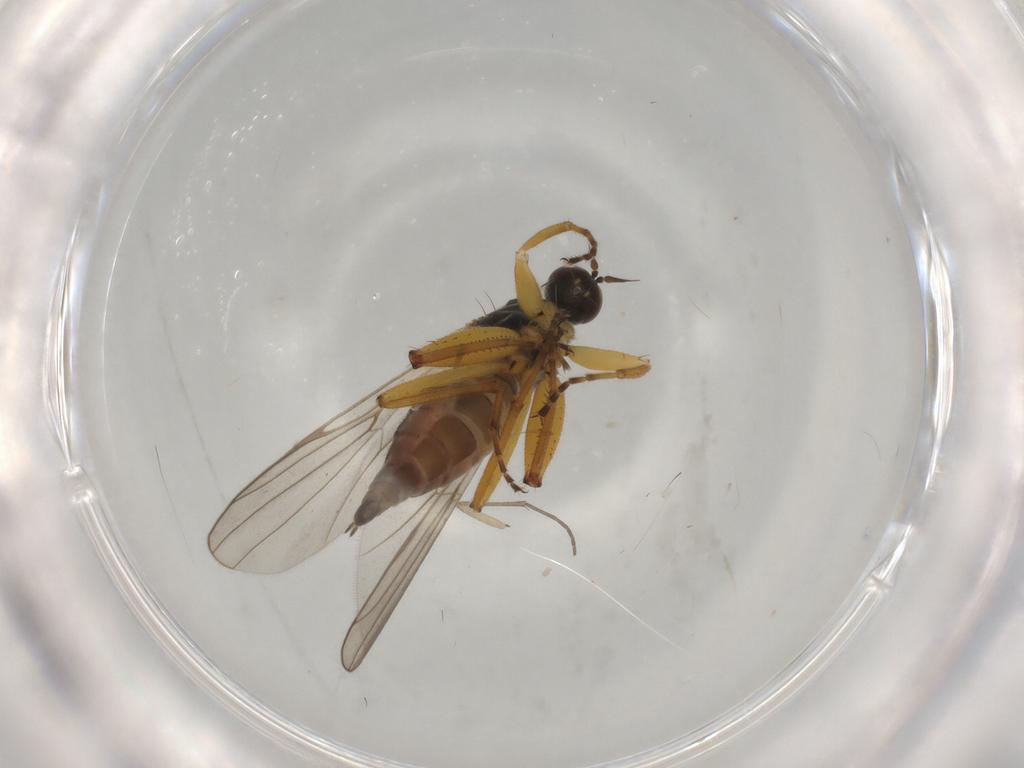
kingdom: Animalia
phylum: Arthropoda
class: Insecta
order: Diptera
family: Hybotidae
